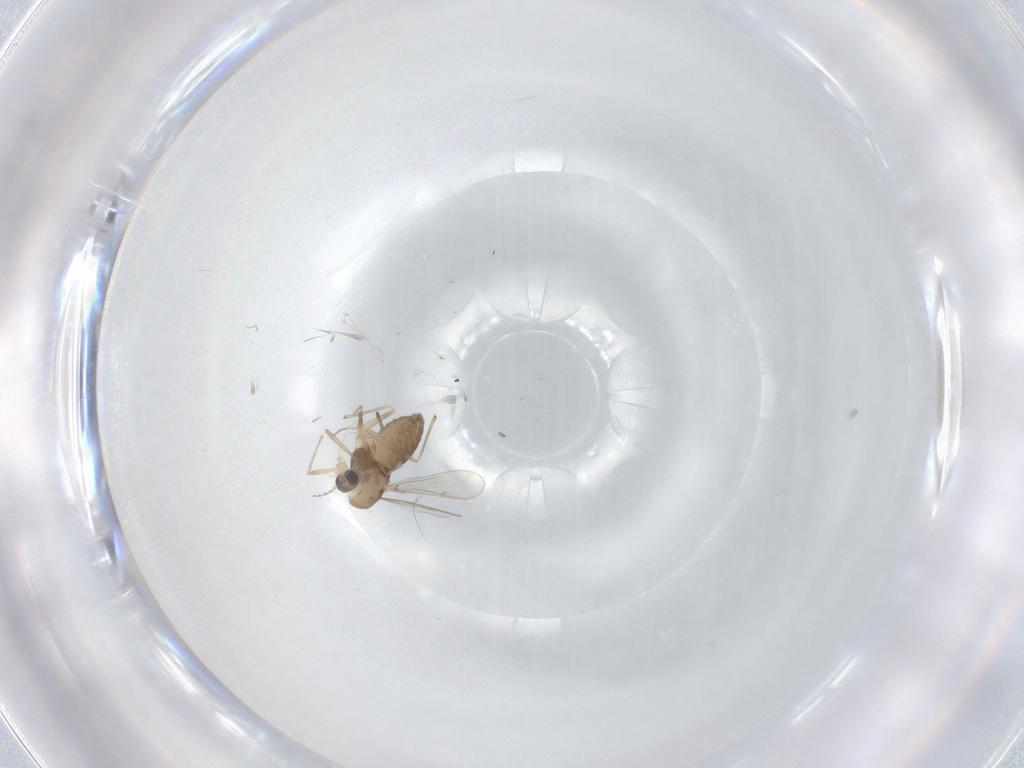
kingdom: Animalia
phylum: Arthropoda
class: Insecta
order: Diptera
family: Chironomidae
